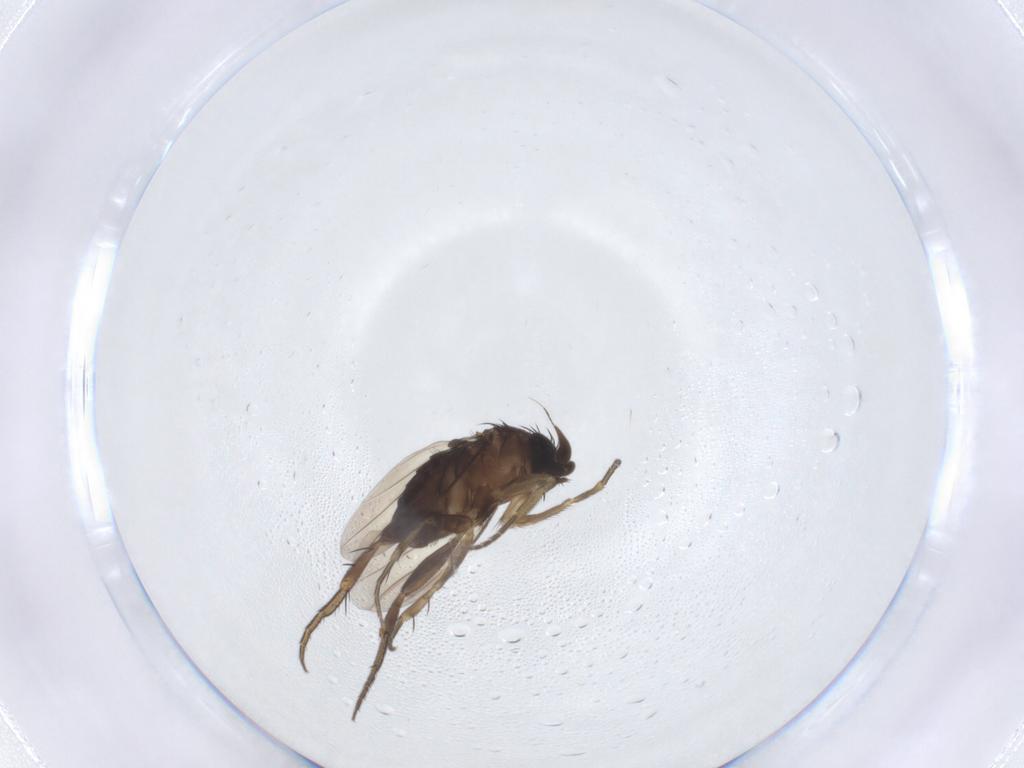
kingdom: Animalia
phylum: Arthropoda
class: Insecta
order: Diptera
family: Phoridae
